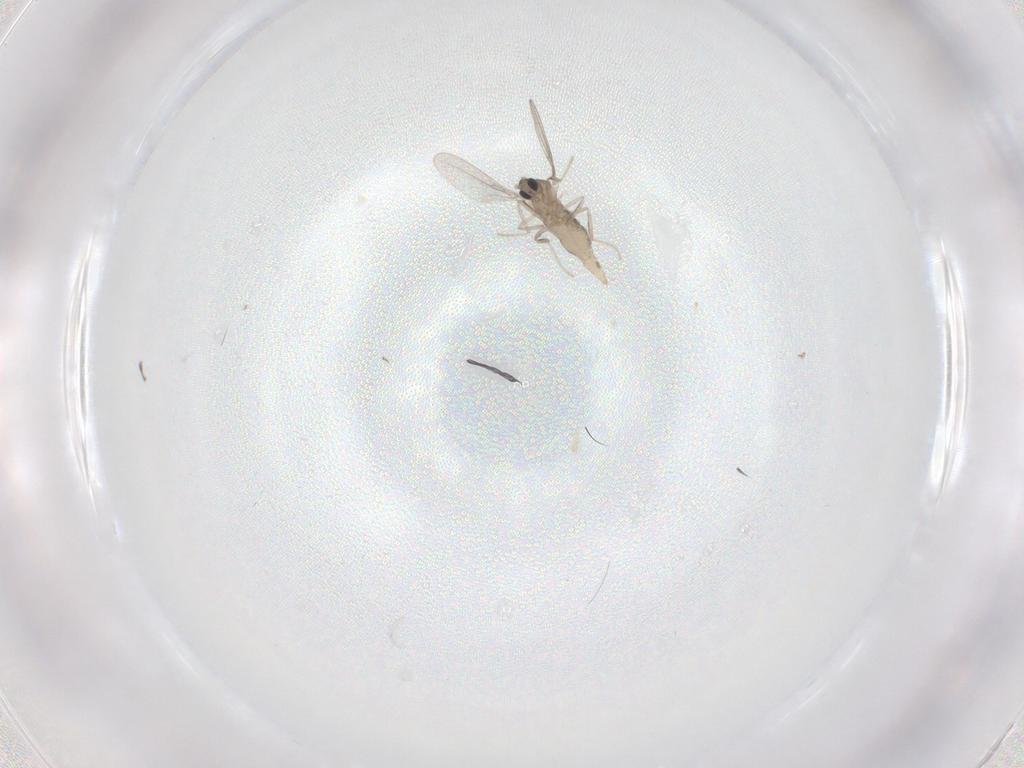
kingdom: Animalia
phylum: Arthropoda
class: Insecta
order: Diptera
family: Cecidomyiidae
